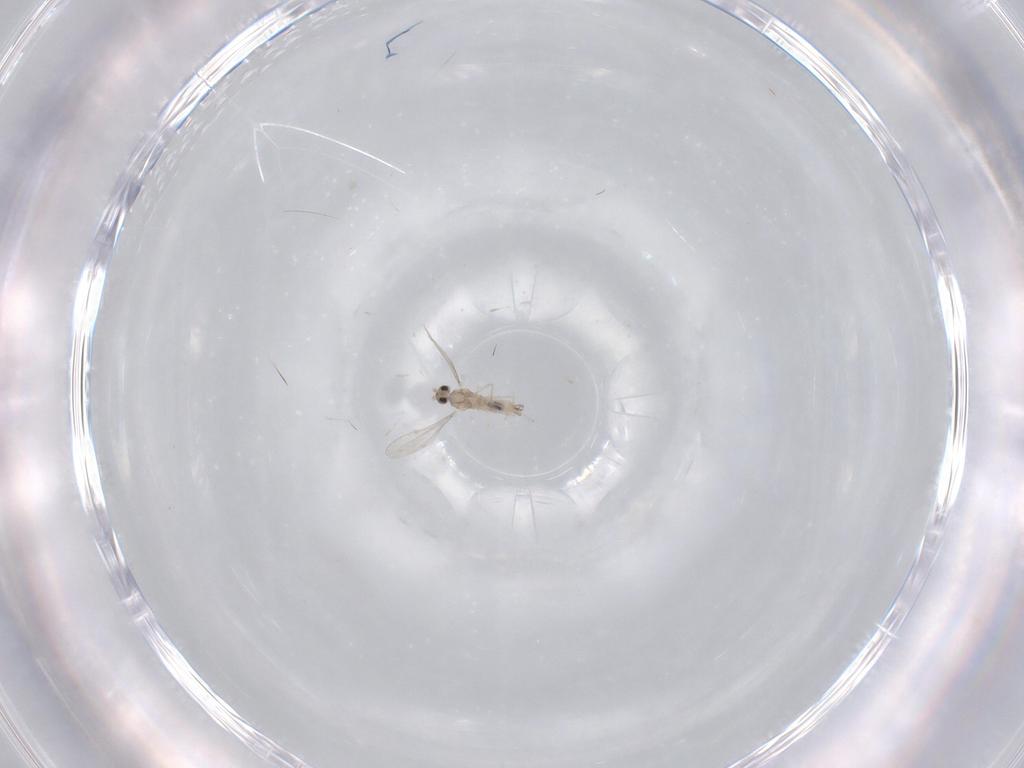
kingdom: Animalia
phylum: Arthropoda
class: Insecta
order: Diptera
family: Cecidomyiidae
